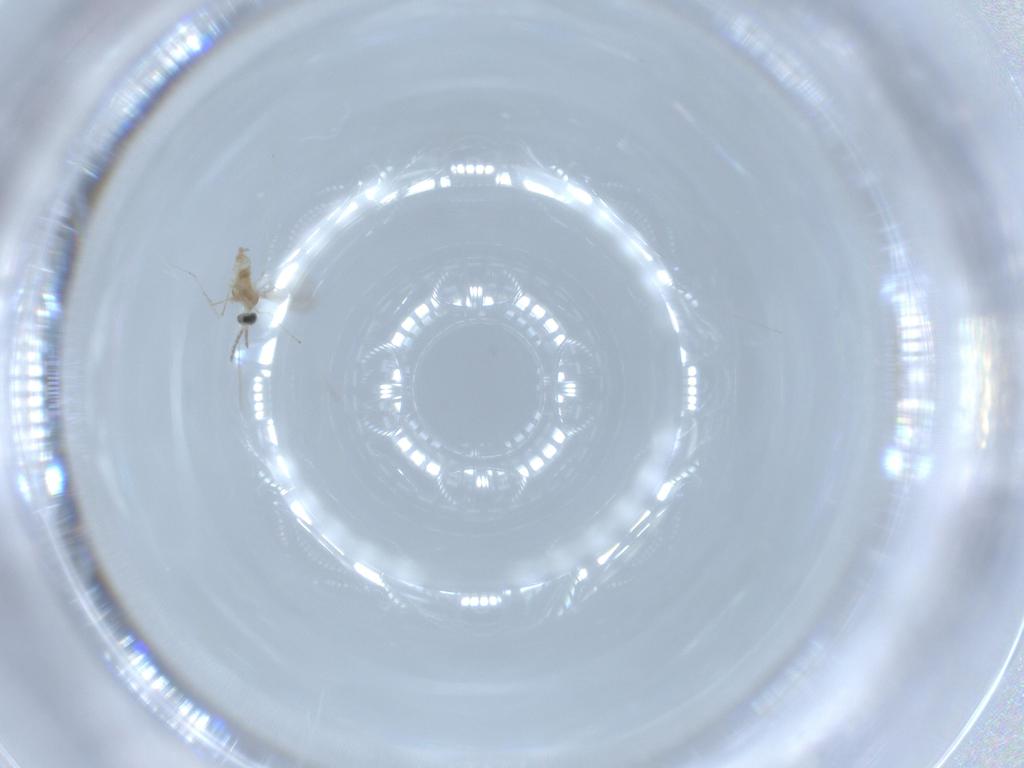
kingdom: Animalia
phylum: Arthropoda
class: Insecta
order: Diptera
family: Cecidomyiidae
